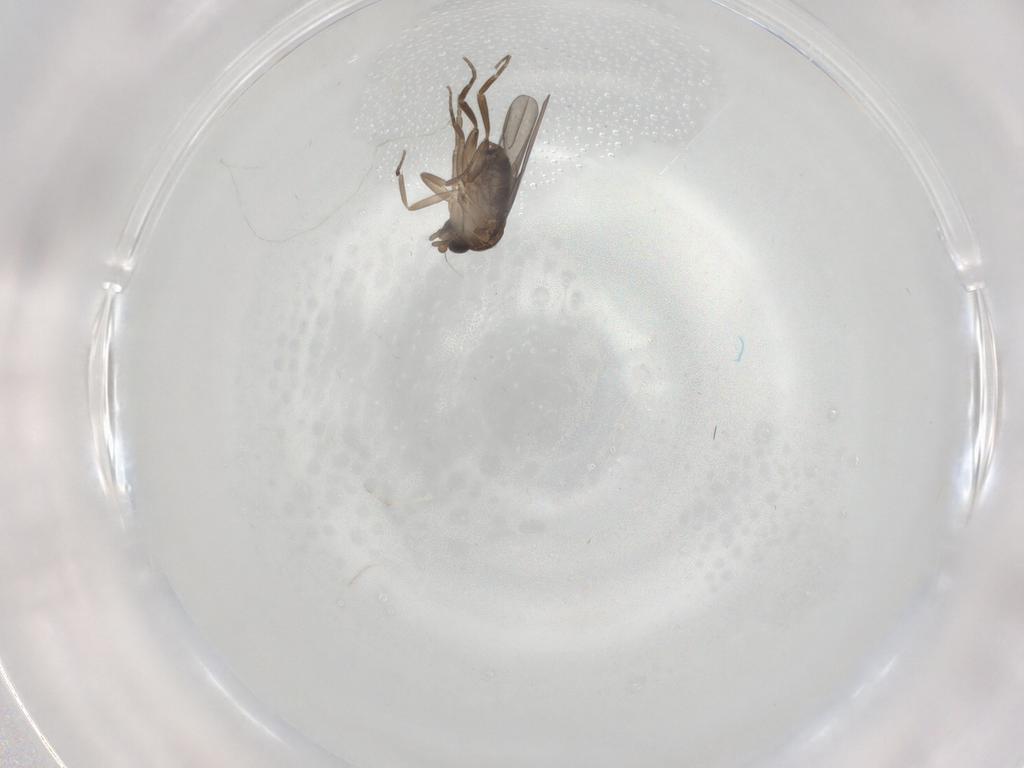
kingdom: Animalia
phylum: Arthropoda
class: Insecta
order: Diptera
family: Phoridae
